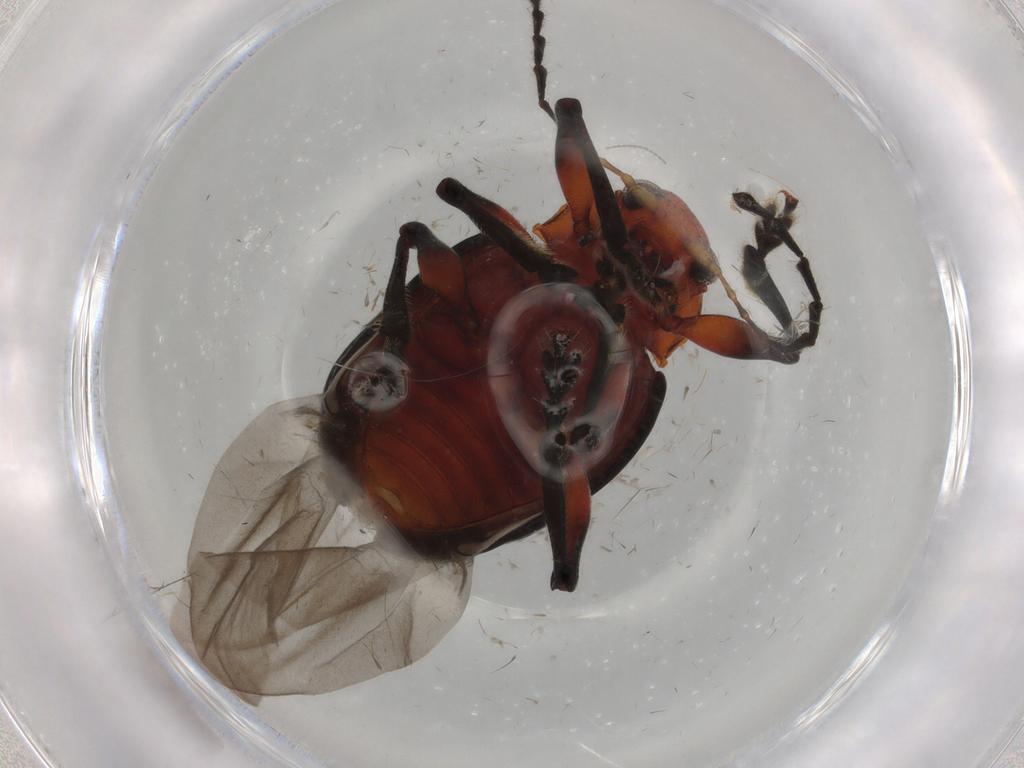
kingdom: Animalia
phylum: Arthropoda
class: Insecta
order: Coleoptera
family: Chrysomelidae
